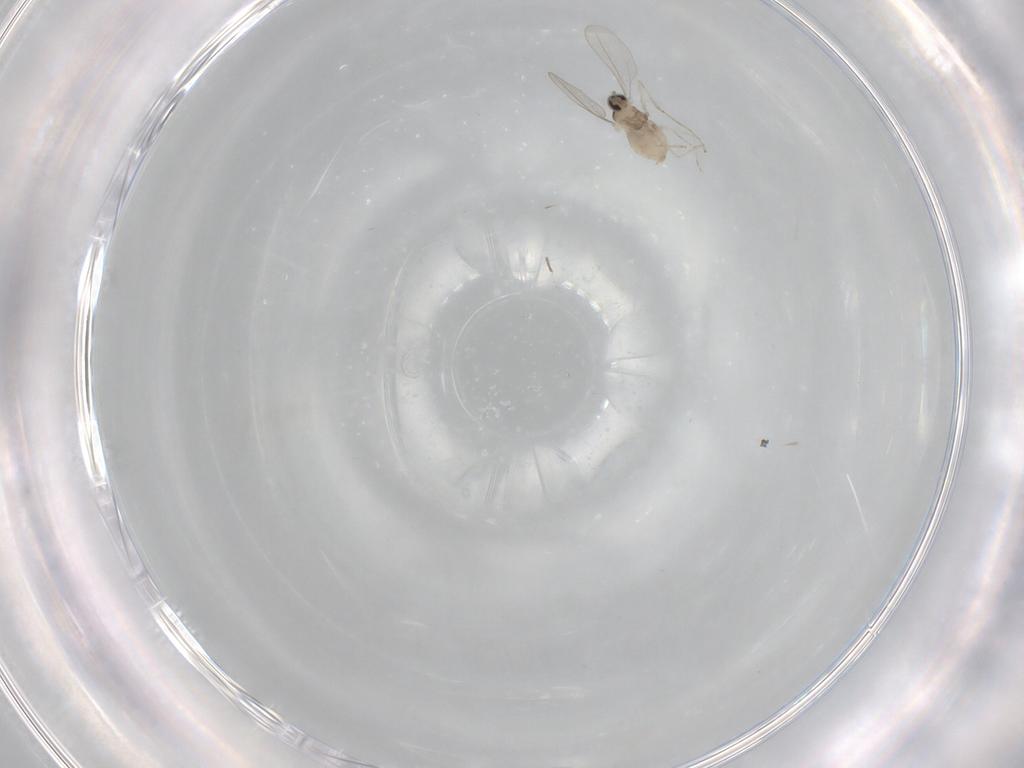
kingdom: Animalia
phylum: Arthropoda
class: Insecta
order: Diptera
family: Cecidomyiidae
